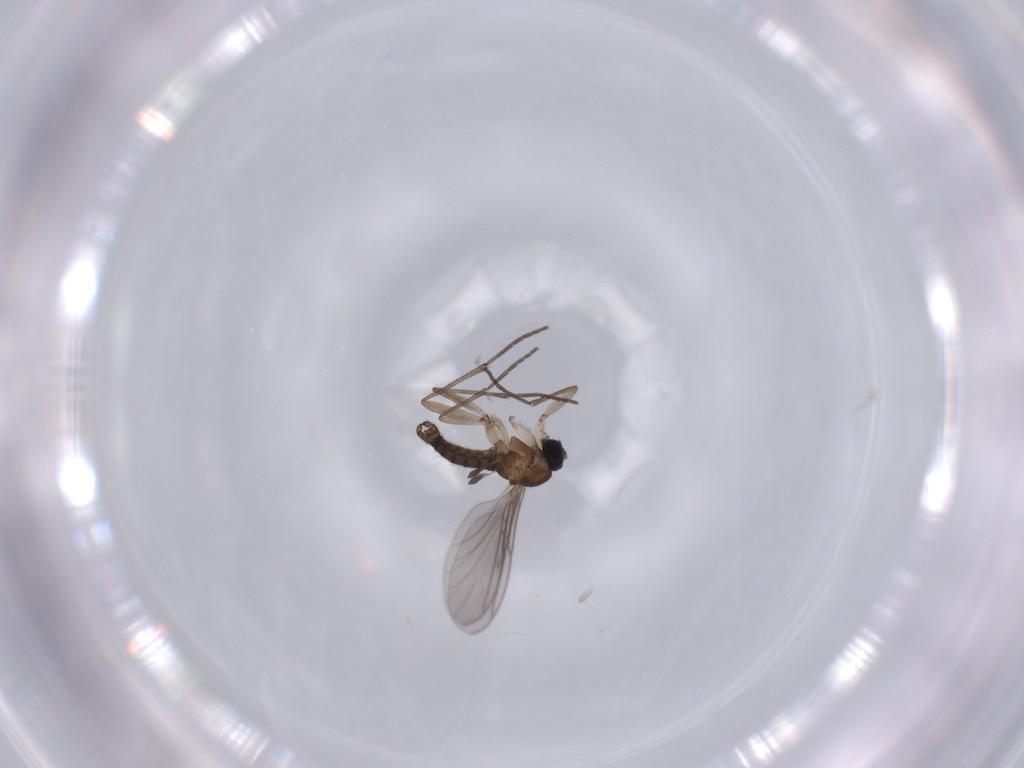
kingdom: Animalia
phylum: Arthropoda
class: Insecta
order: Diptera
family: Sciaridae
